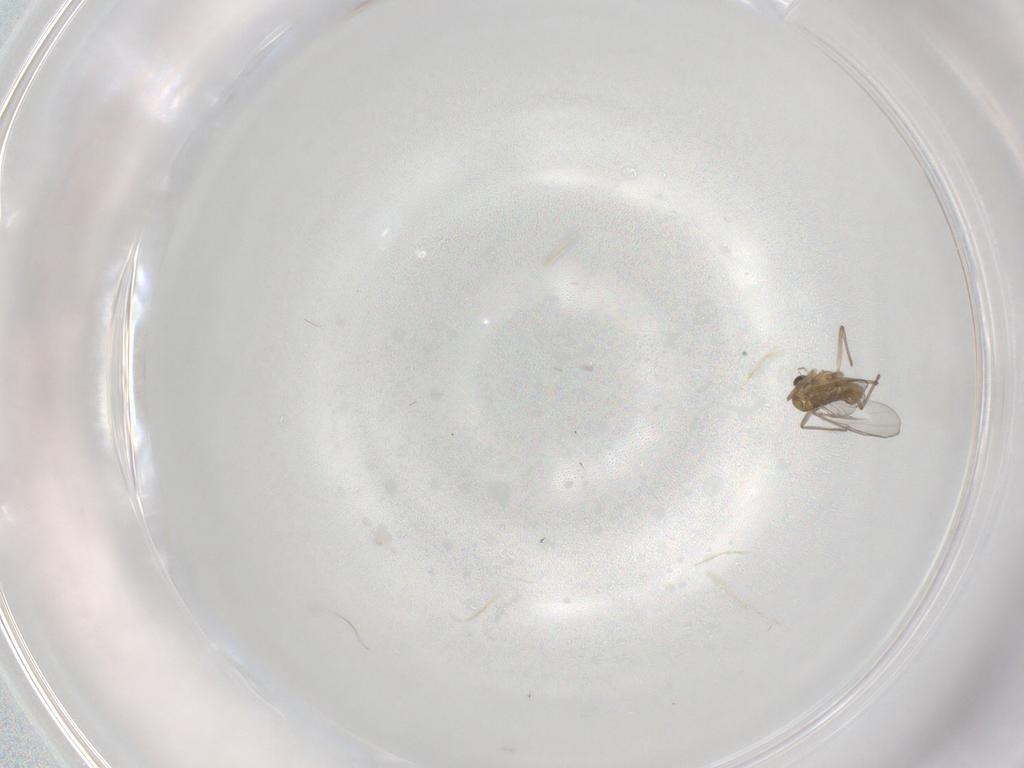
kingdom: Animalia
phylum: Arthropoda
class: Insecta
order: Diptera
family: Chironomidae
